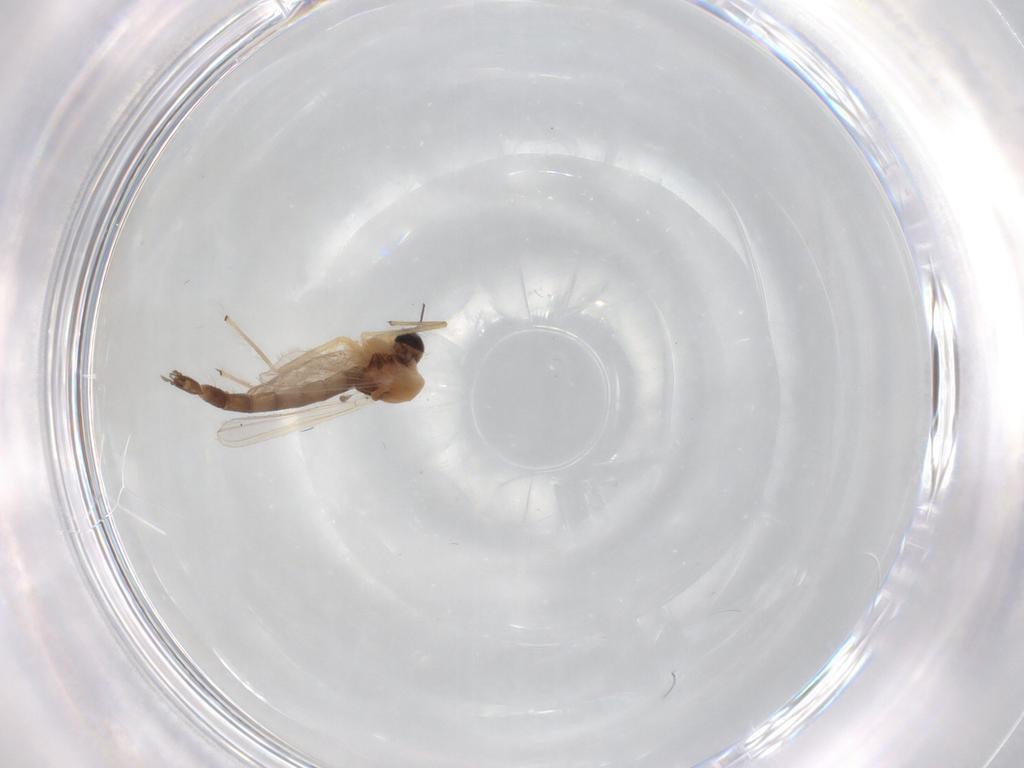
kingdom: Animalia
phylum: Arthropoda
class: Insecta
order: Diptera
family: Chironomidae
